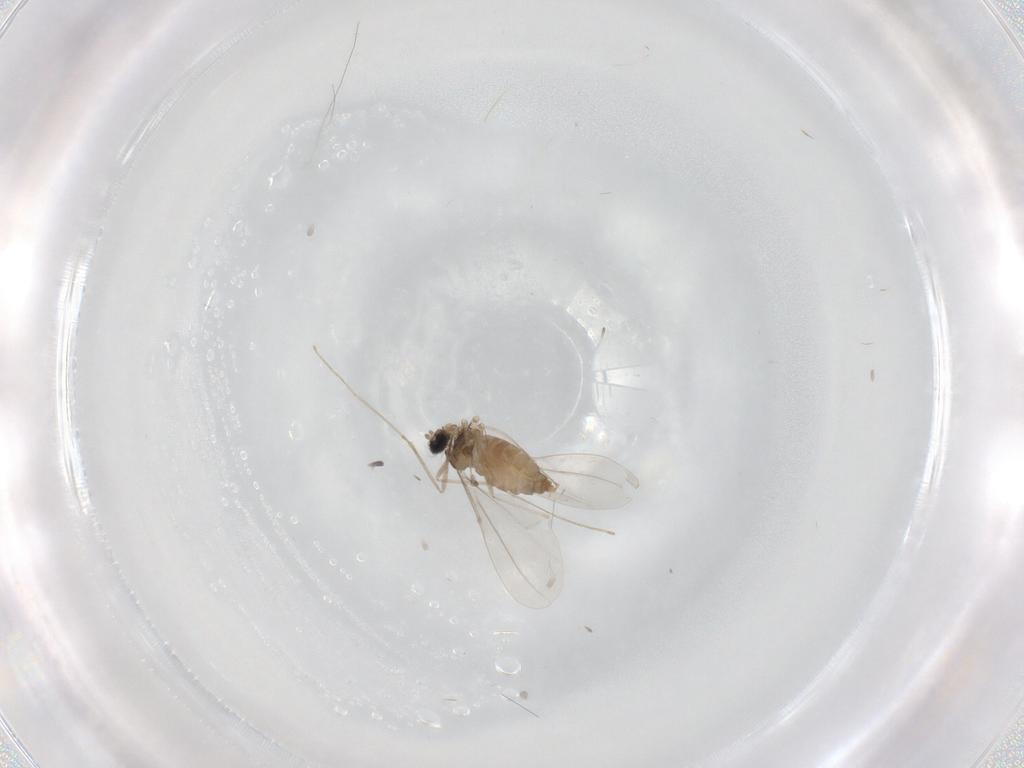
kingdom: Animalia
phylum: Arthropoda
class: Insecta
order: Diptera
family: Cecidomyiidae
